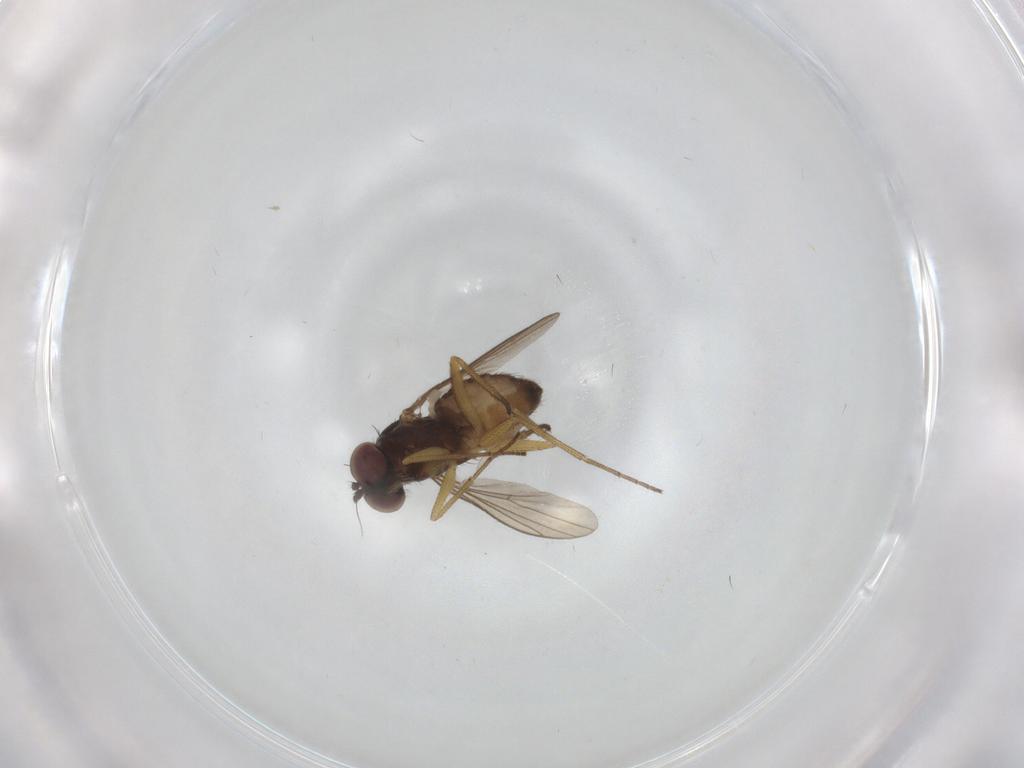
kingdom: Animalia
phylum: Arthropoda
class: Insecta
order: Diptera
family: Dolichopodidae
